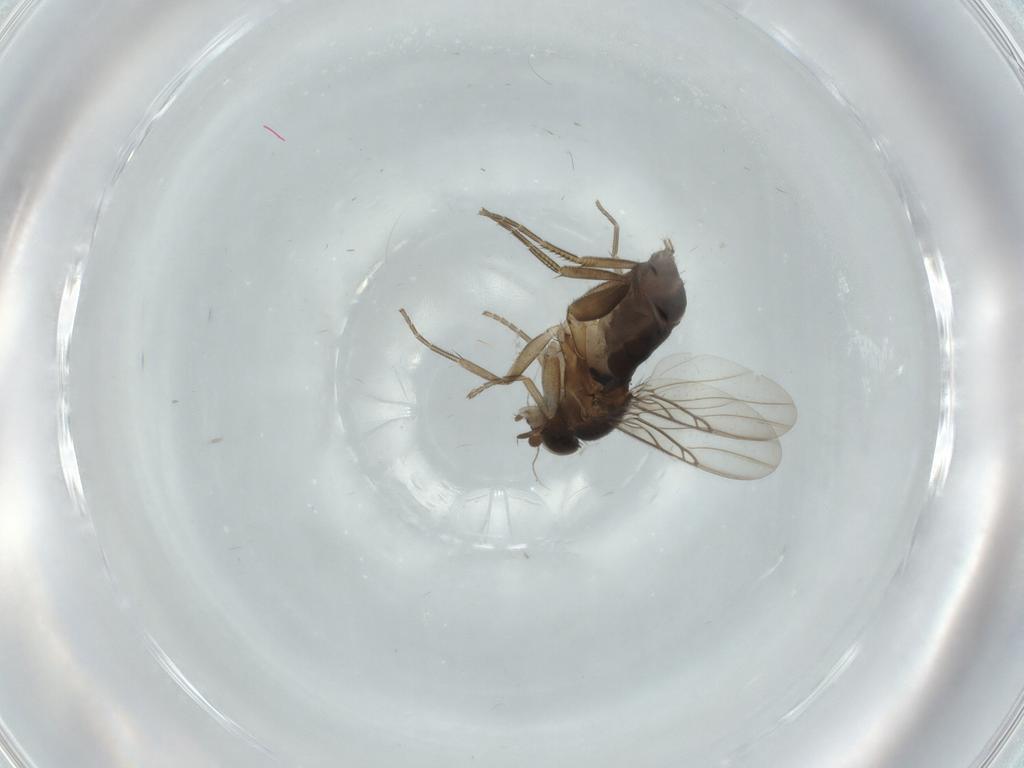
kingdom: Animalia
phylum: Arthropoda
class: Insecta
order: Diptera
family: Phoridae
